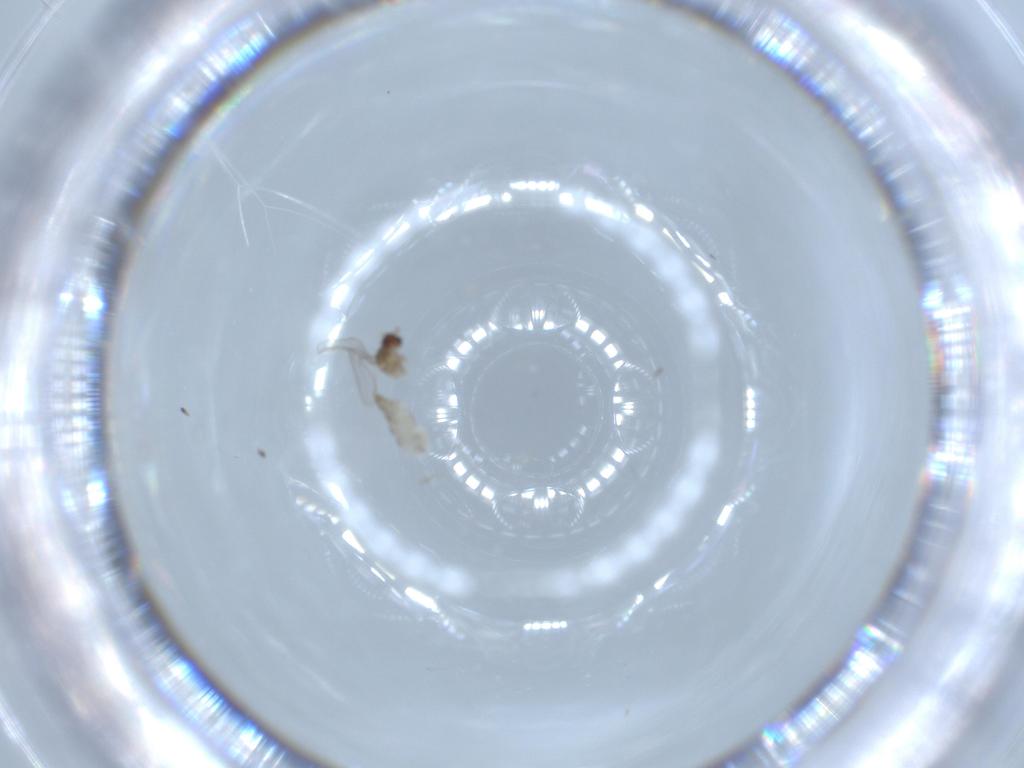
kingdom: Animalia
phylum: Arthropoda
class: Insecta
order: Diptera
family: Cecidomyiidae
